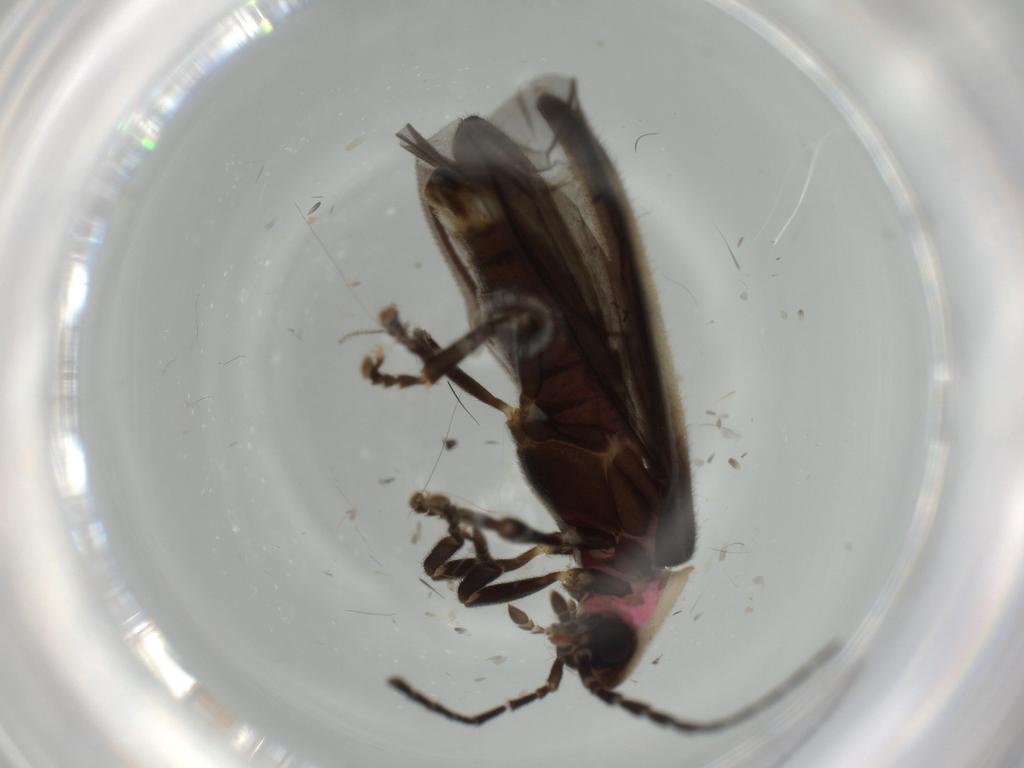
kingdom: Animalia
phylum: Arthropoda
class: Insecta
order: Coleoptera
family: Lampyridae
